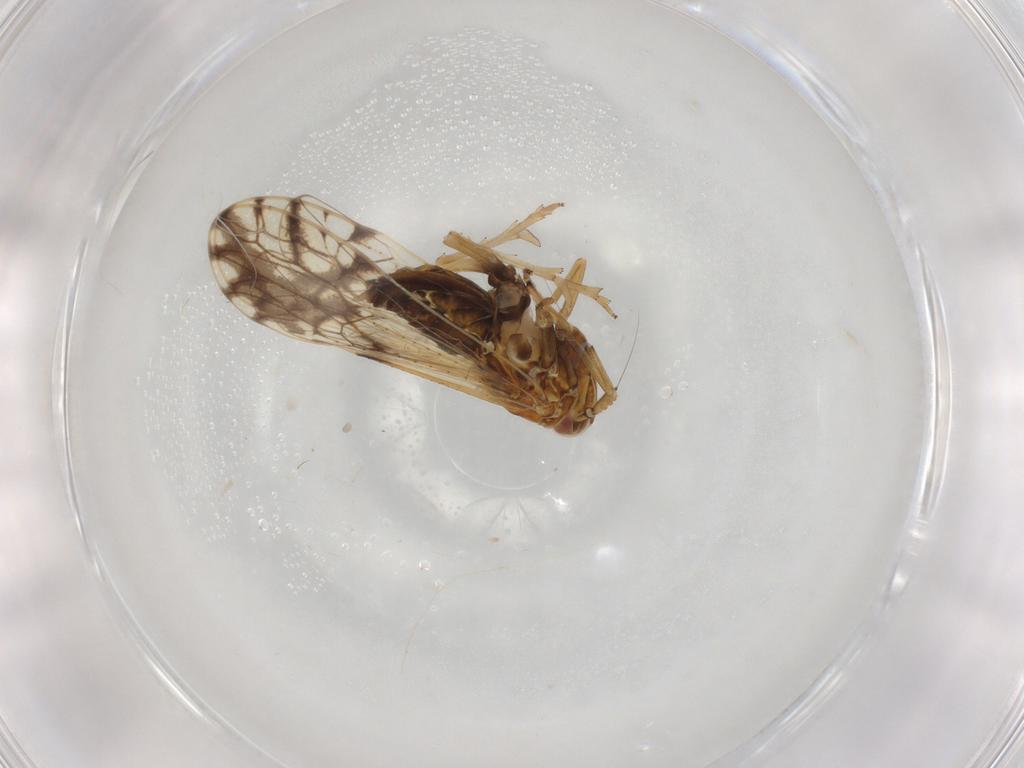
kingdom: Animalia
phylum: Arthropoda
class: Insecta
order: Hemiptera
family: Delphacidae
